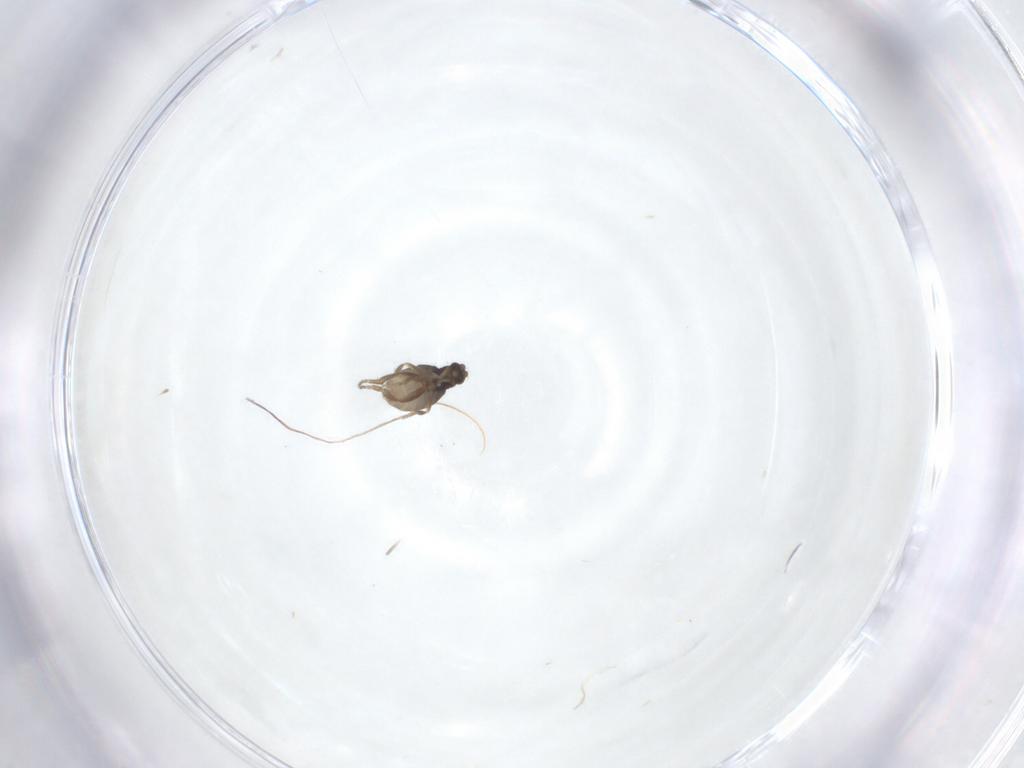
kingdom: Animalia
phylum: Arthropoda
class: Insecta
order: Diptera
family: Phoridae
